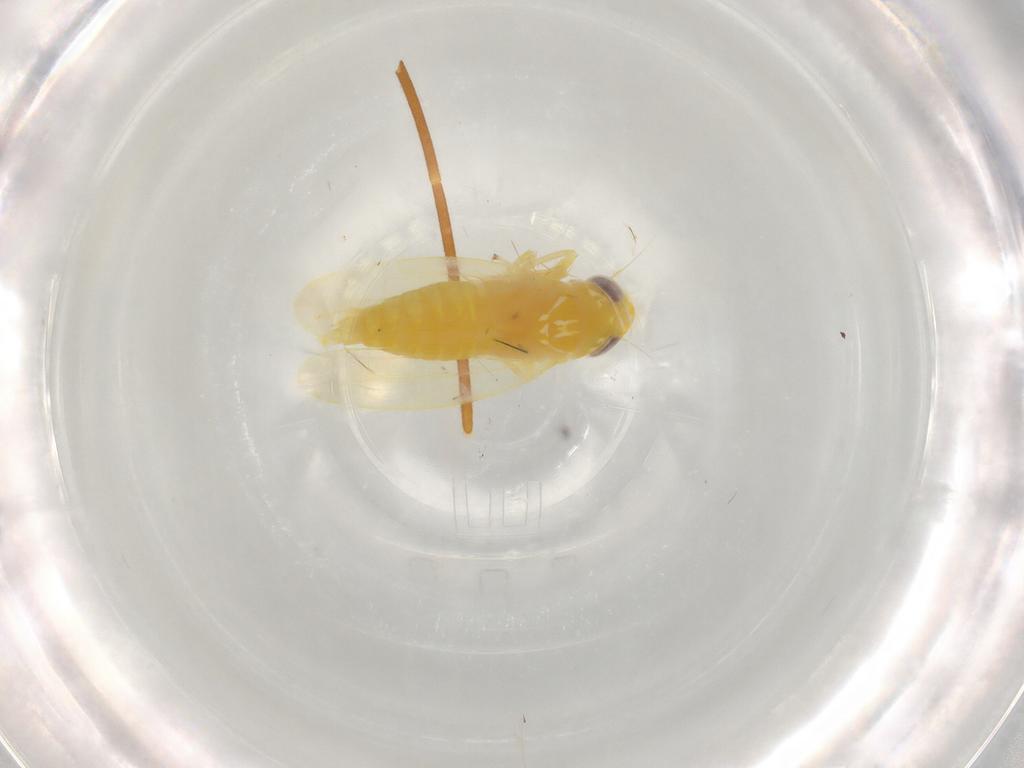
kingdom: Animalia
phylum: Arthropoda
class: Insecta
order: Hemiptera
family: Cicadellidae
